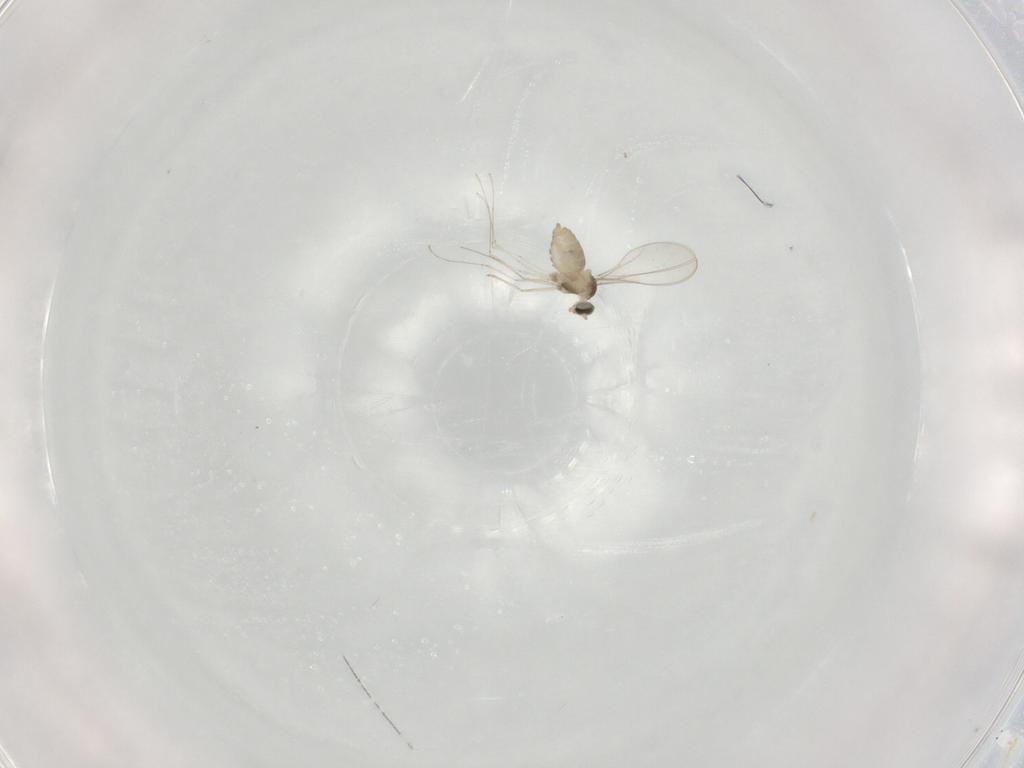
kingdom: Animalia
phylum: Arthropoda
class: Insecta
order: Diptera
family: Cecidomyiidae
